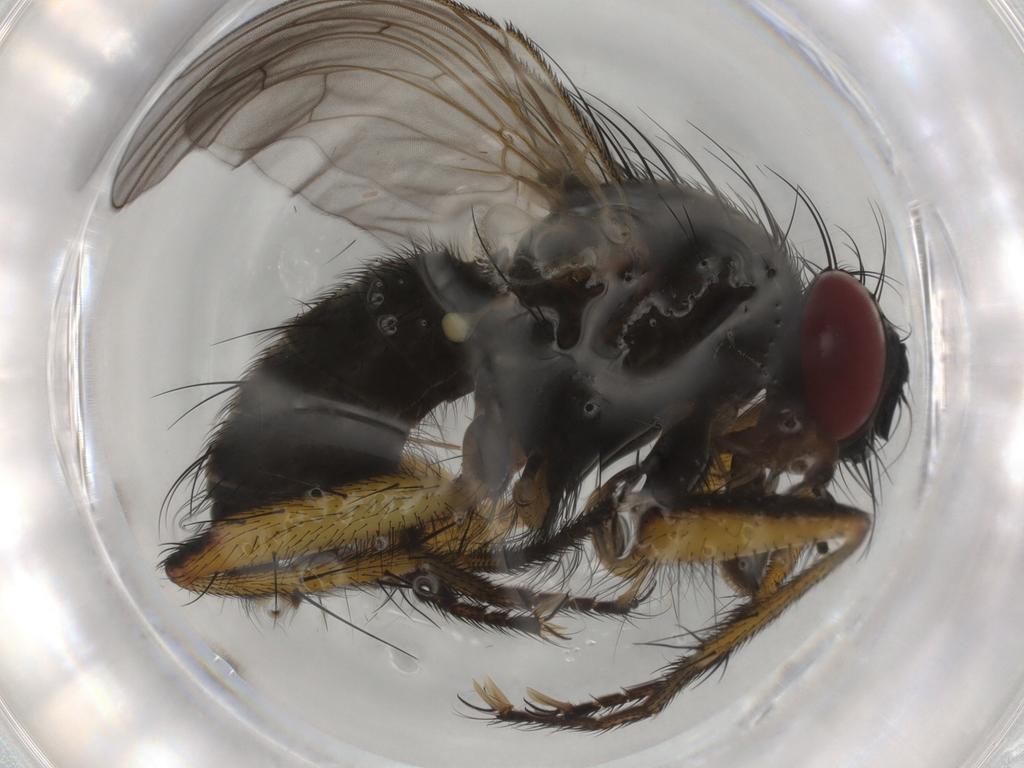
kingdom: Animalia
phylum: Arthropoda
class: Insecta
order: Diptera
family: Muscidae
